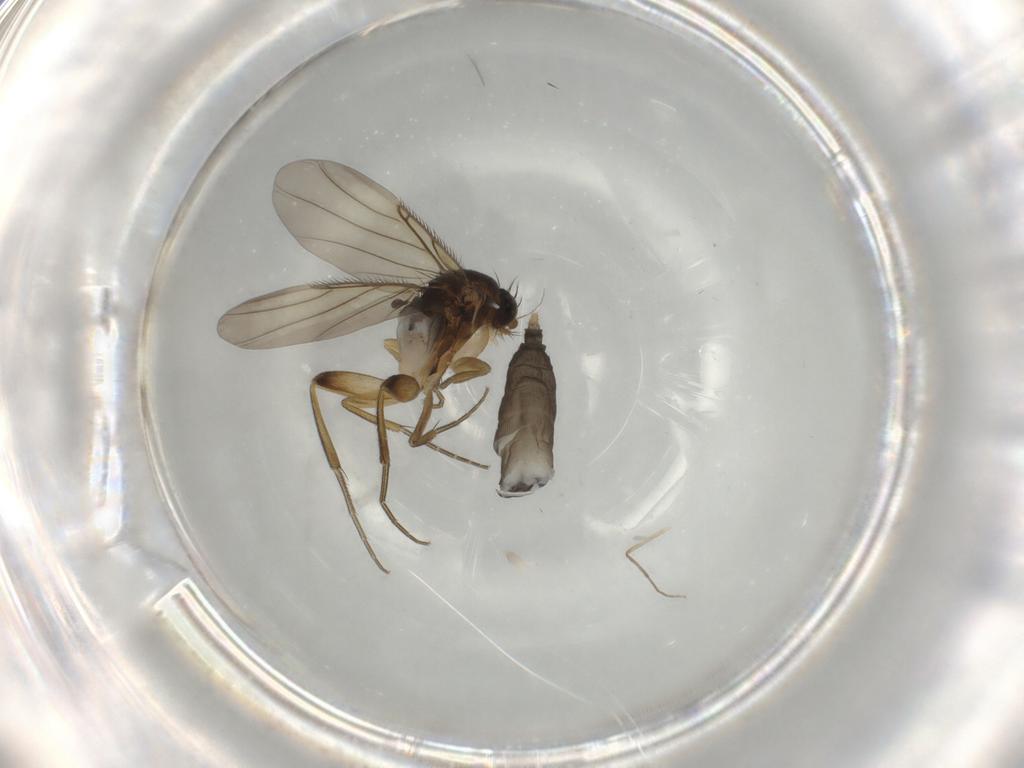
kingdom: Animalia
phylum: Arthropoda
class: Insecta
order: Diptera
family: Phoridae
